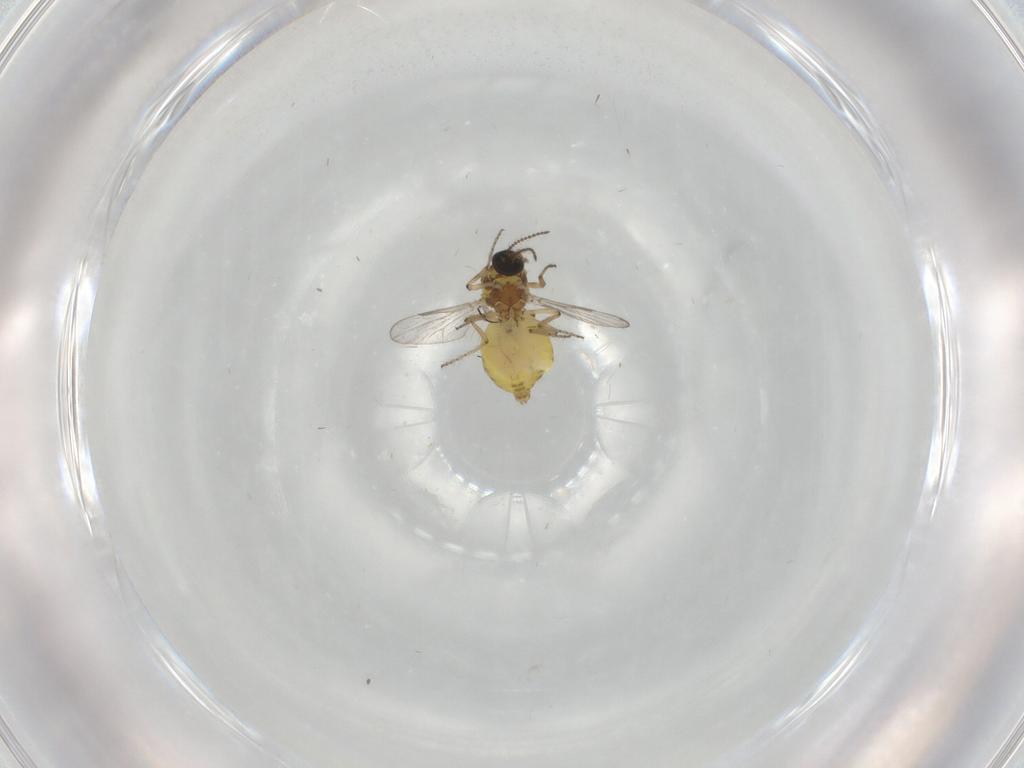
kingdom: Animalia
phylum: Arthropoda
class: Insecta
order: Diptera
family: Ceratopogonidae
